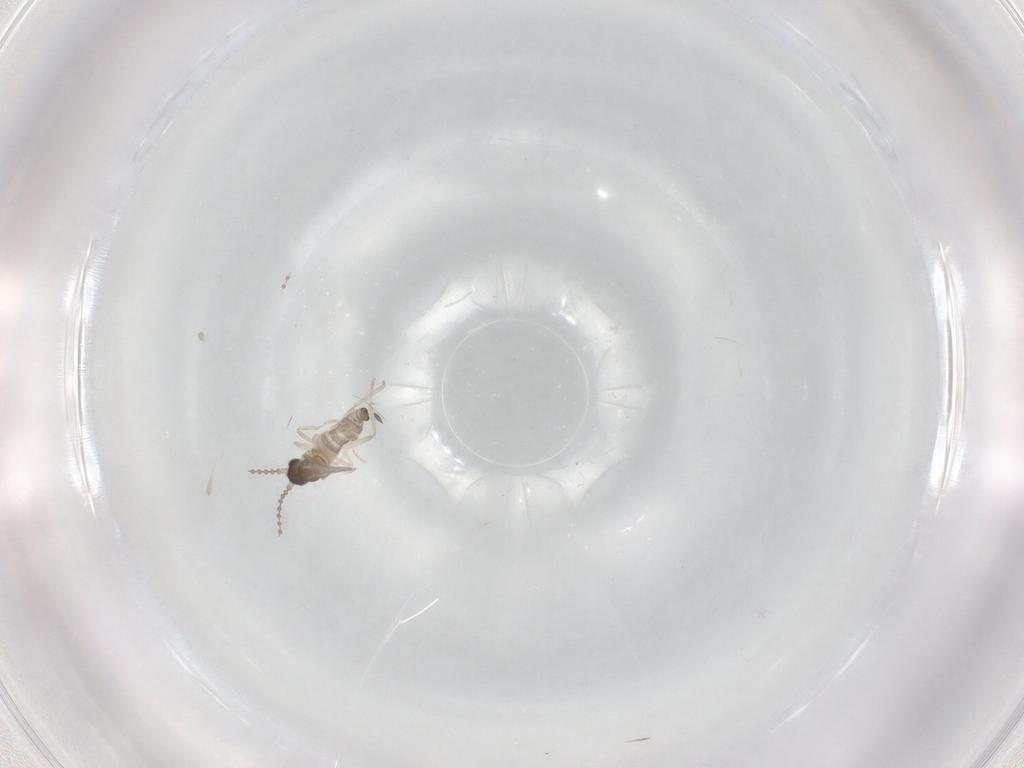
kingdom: Animalia
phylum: Arthropoda
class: Insecta
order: Diptera
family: Cecidomyiidae
